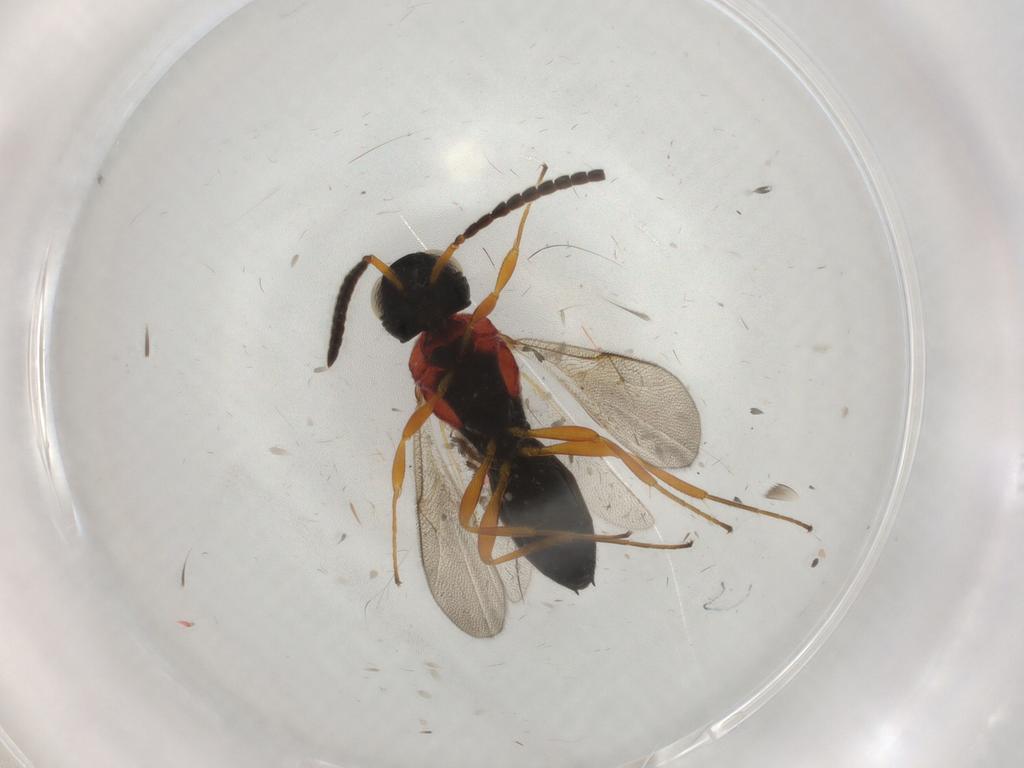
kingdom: Animalia
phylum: Arthropoda
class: Insecta
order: Hymenoptera
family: Scelionidae
